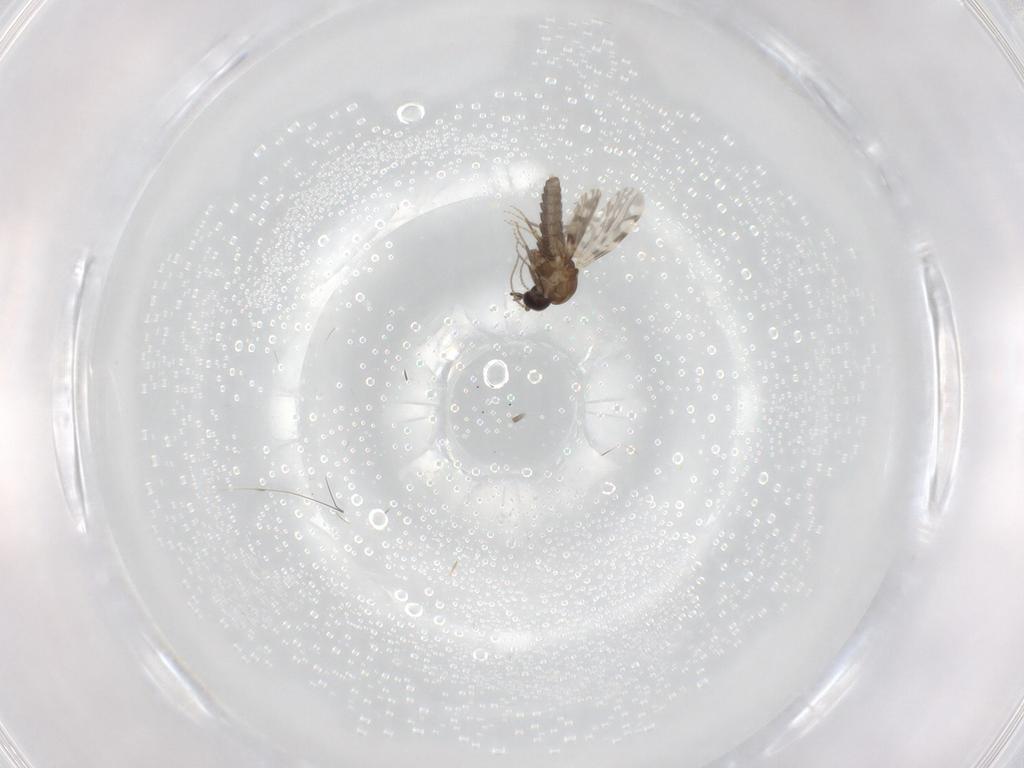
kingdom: Animalia
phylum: Arthropoda
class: Insecta
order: Diptera
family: Ceratopogonidae
